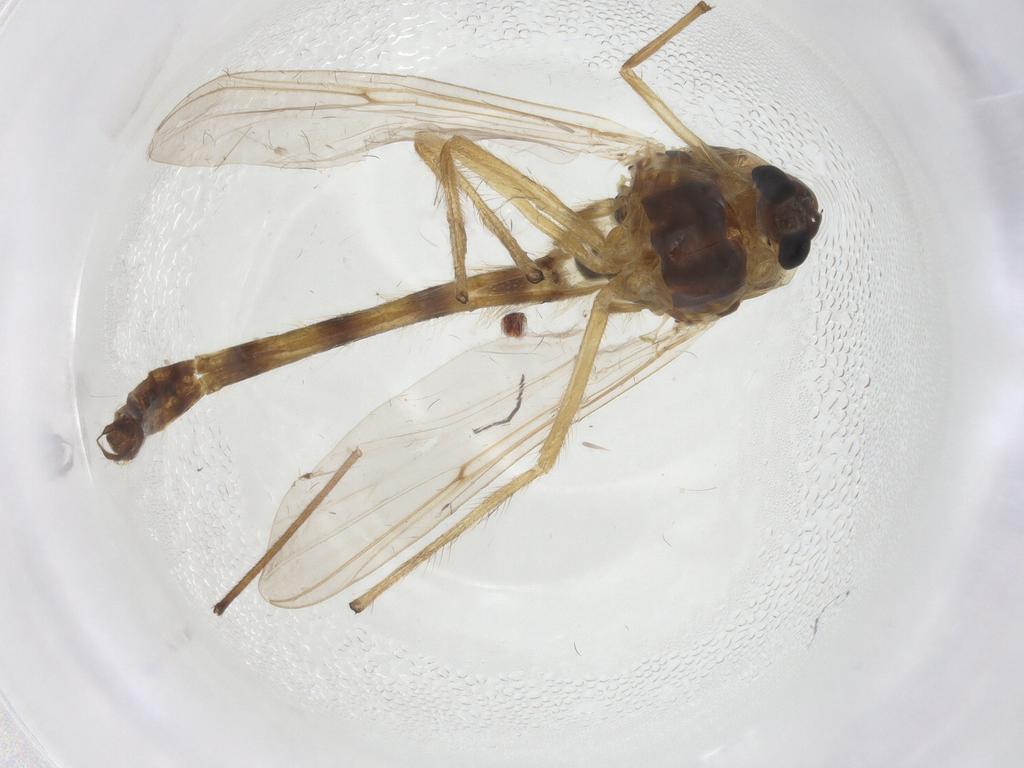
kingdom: Animalia
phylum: Arthropoda
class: Insecta
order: Diptera
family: Chironomidae
